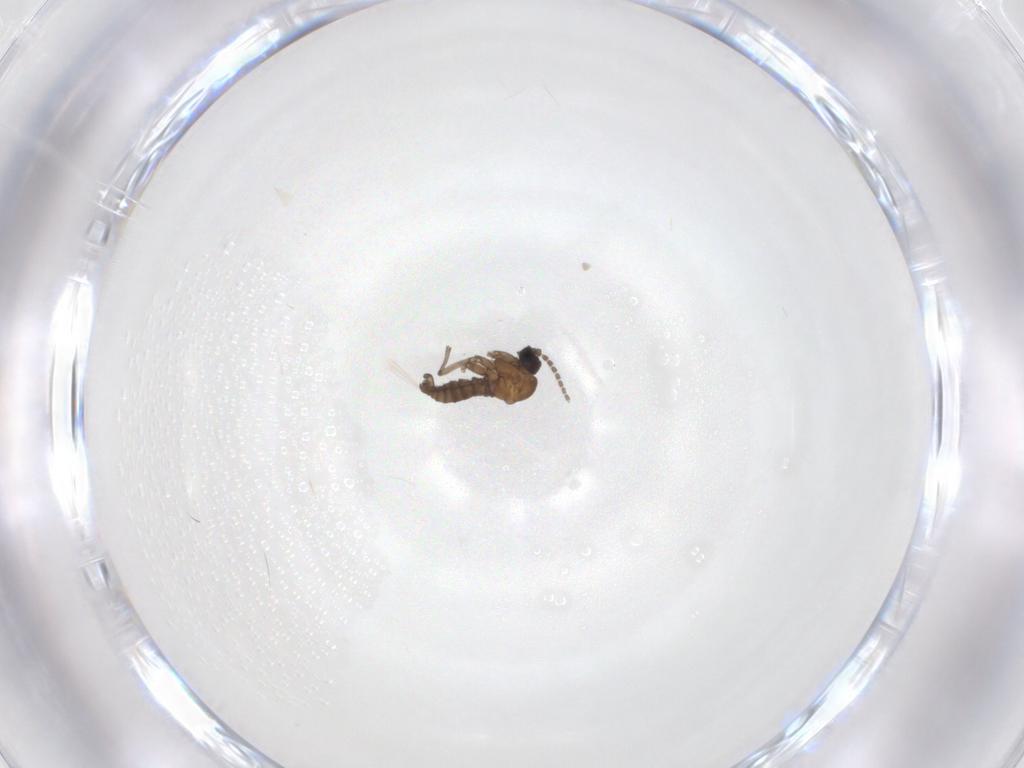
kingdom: Animalia
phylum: Arthropoda
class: Insecta
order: Diptera
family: Sciaridae
